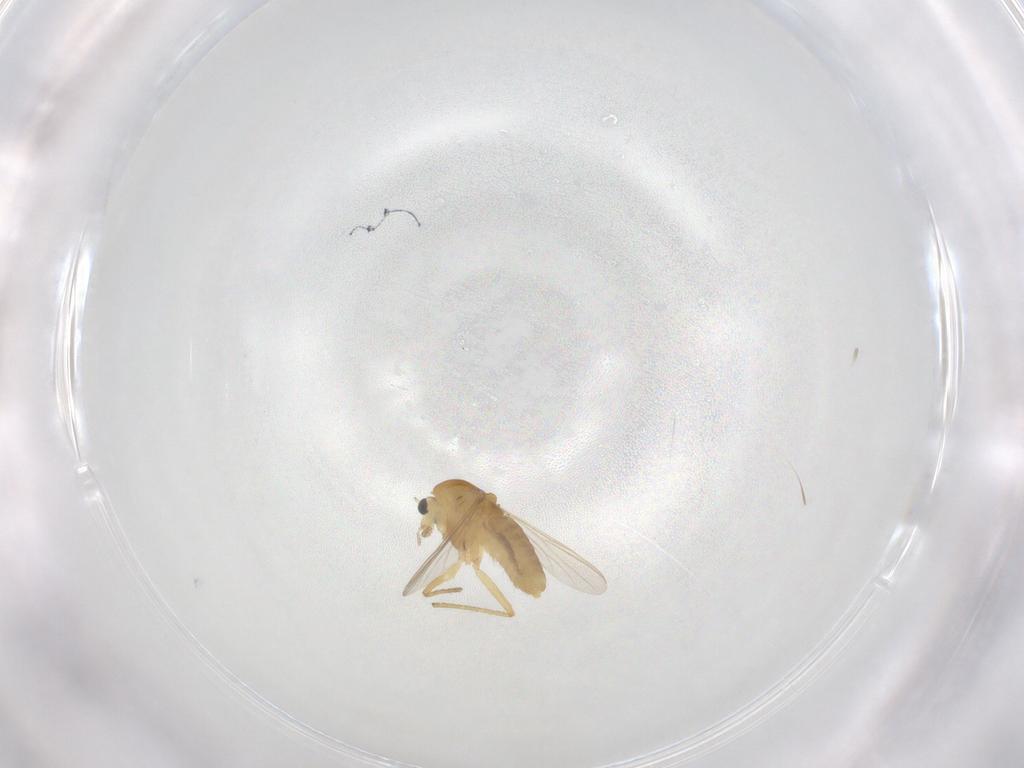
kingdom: Animalia
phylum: Arthropoda
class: Insecta
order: Diptera
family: Chironomidae
